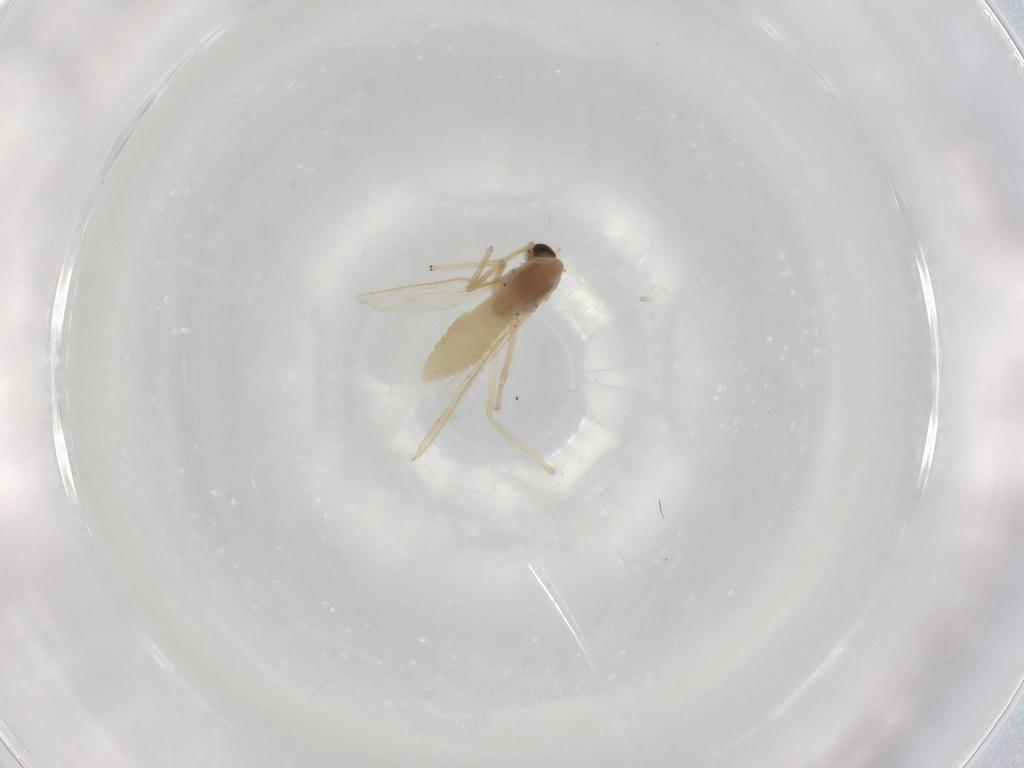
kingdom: Animalia
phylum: Arthropoda
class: Insecta
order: Diptera
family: Chironomidae
